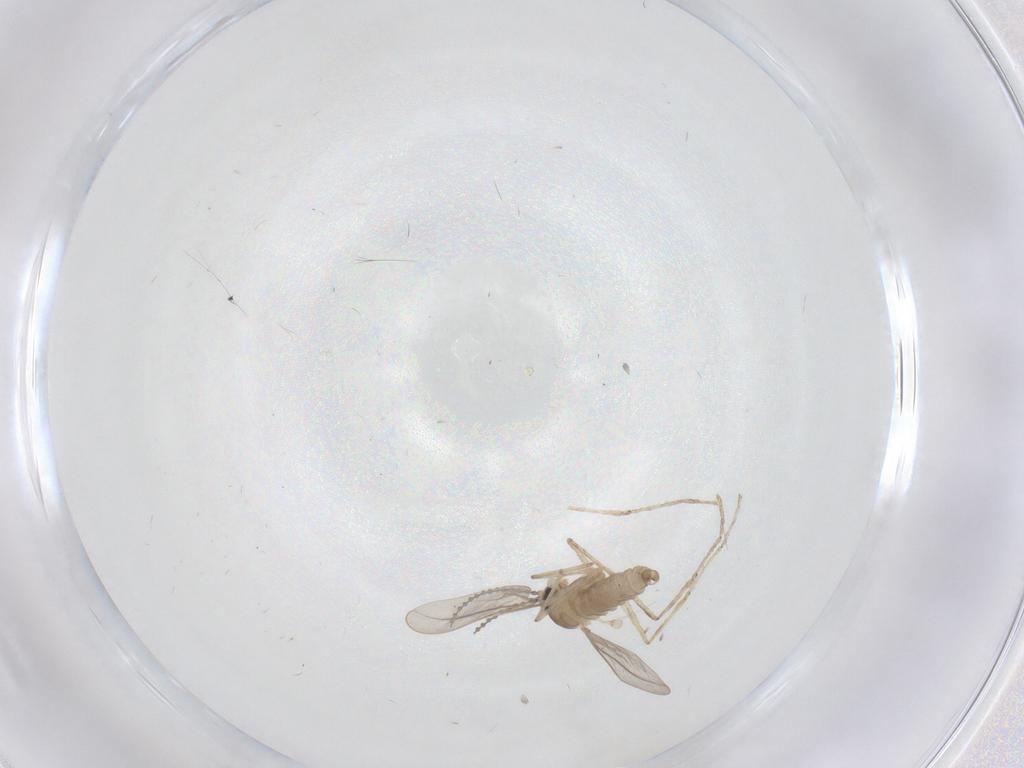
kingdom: Animalia
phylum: Arthropoda
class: Insecta
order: Diptera
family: Cecidomyiidae
